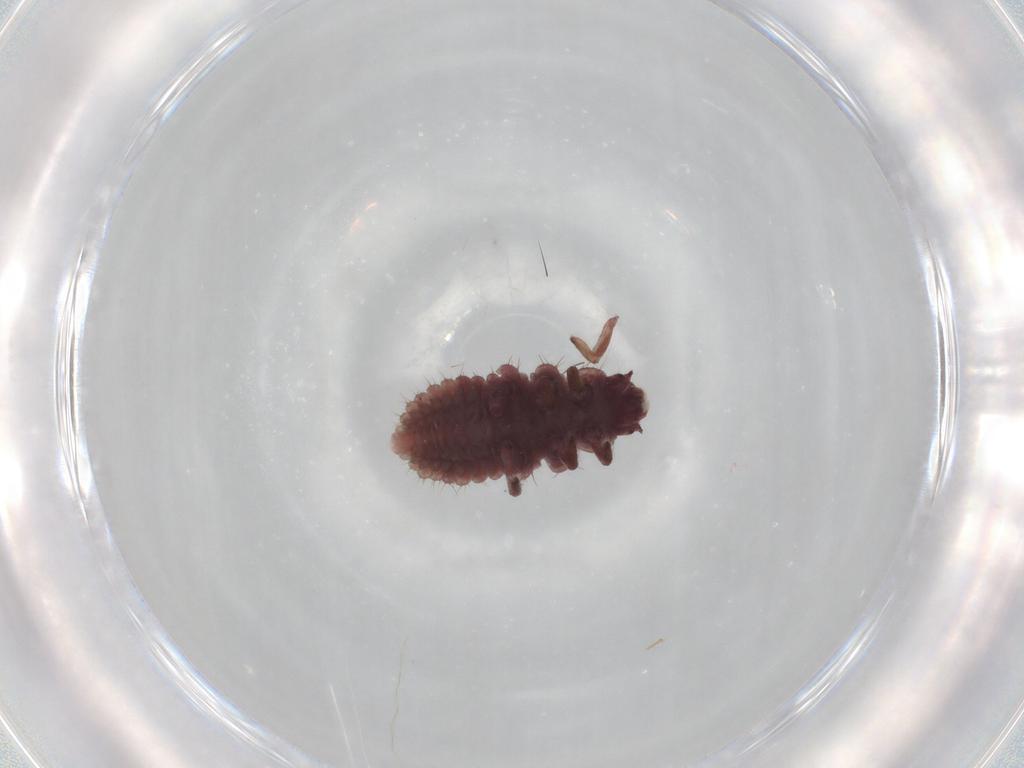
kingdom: Animalia
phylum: Arthropoda
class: Insecta
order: Coleoptera
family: Coccinellidae
